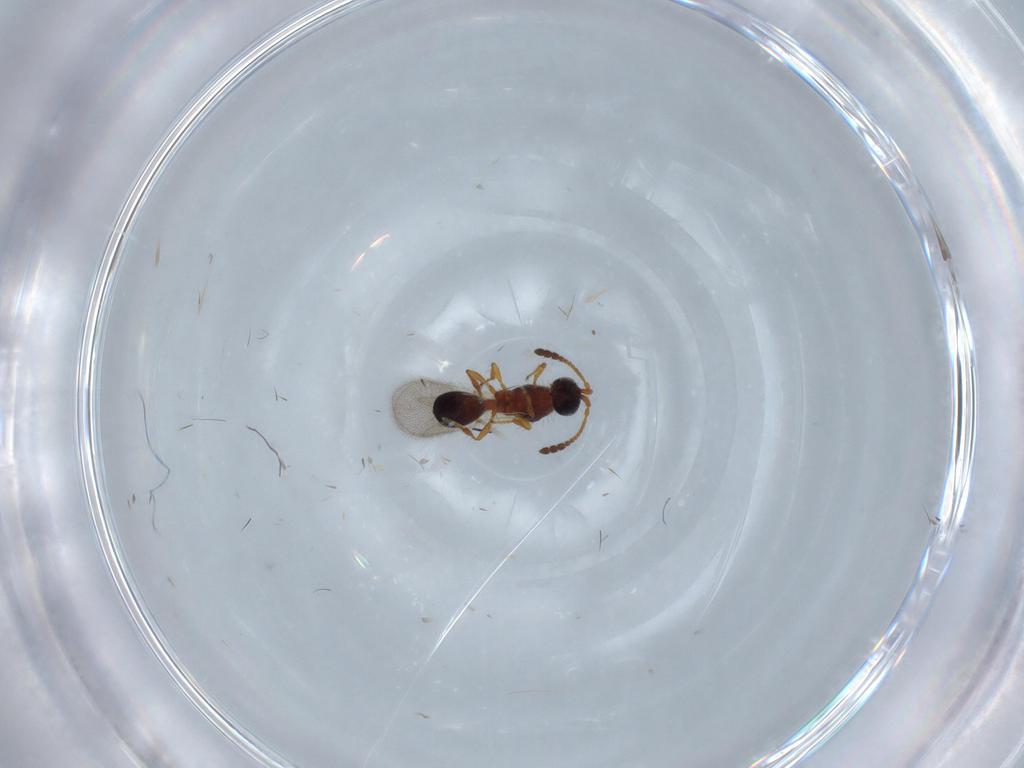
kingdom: Animalia
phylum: Arthropoda
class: Insecta
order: Hymenoptera
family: Diapriidae
